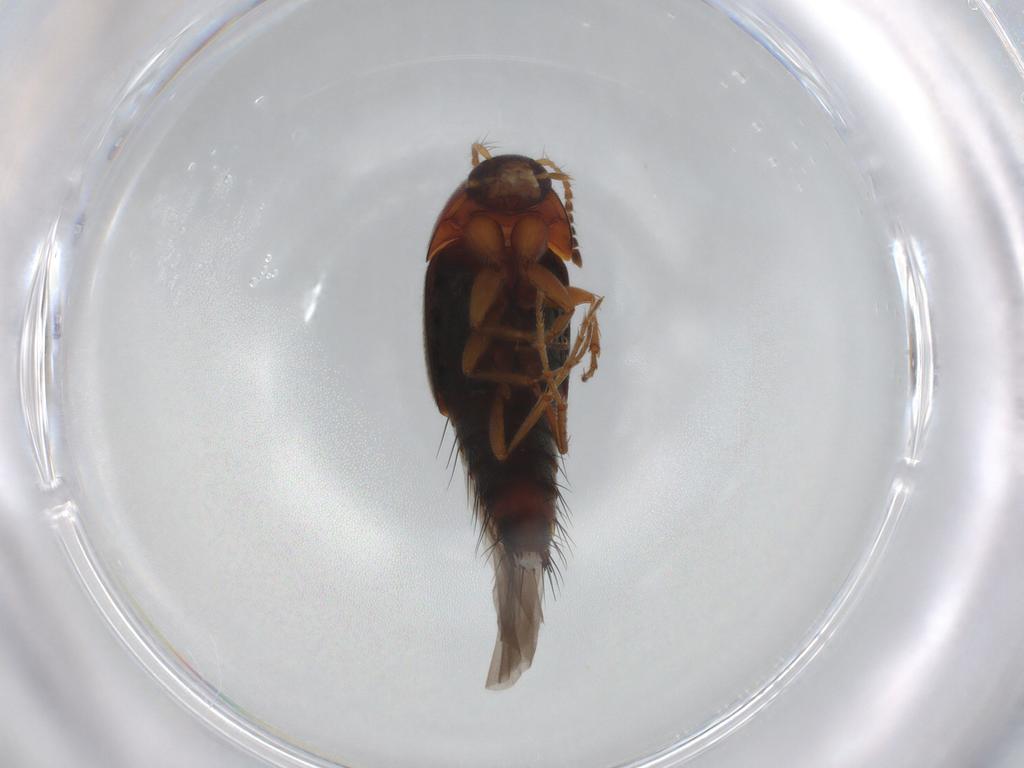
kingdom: Animalia
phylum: Arthropoda
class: Insecta
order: Coleoptera
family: Staphylinidae
